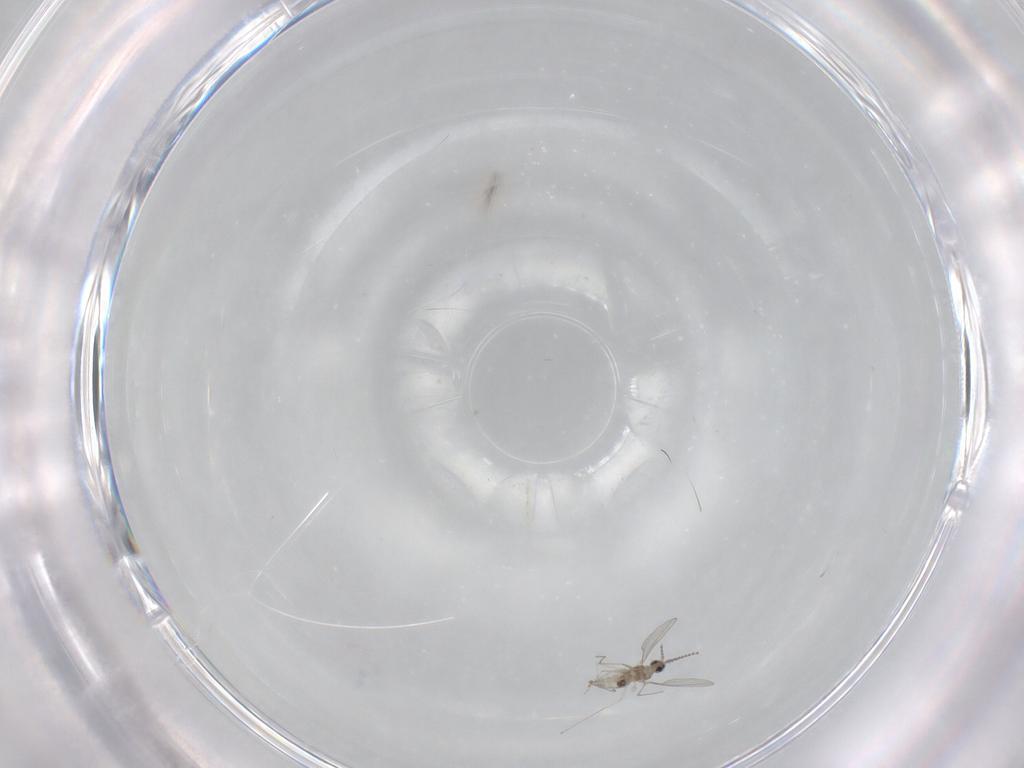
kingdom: Animalia
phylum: Arthropoda
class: Insecta
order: Diptera
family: Cecidomyiidae
